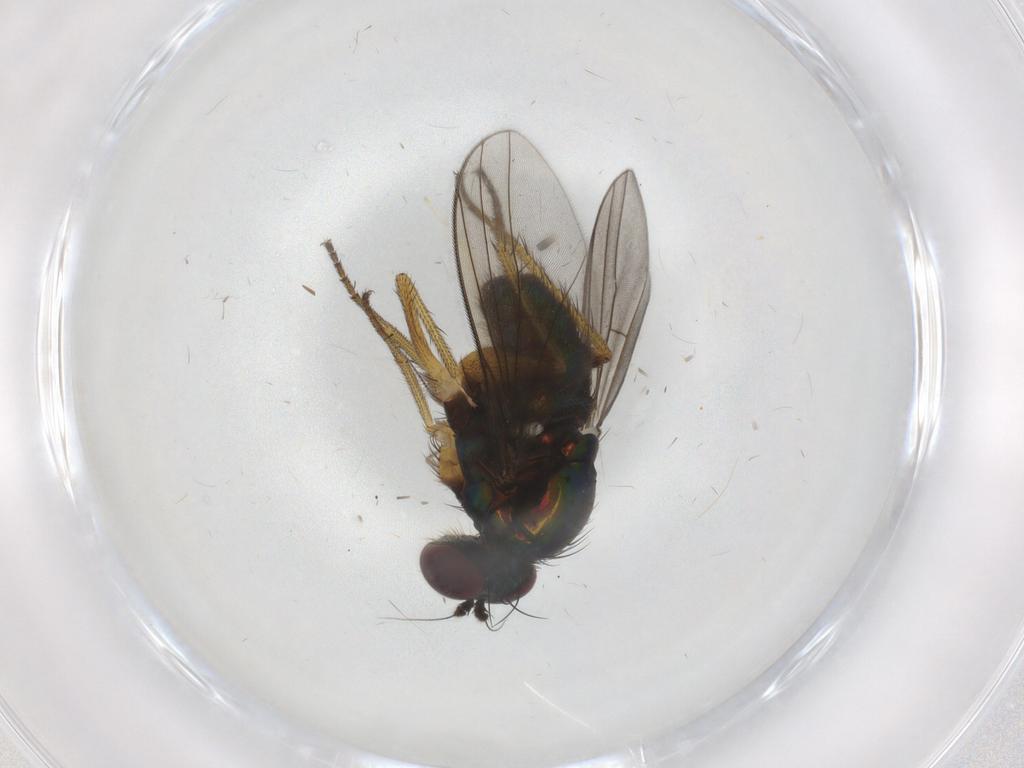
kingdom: Animalia
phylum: Arthropoda
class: Insecta
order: Diptera
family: Dolichopodidae
